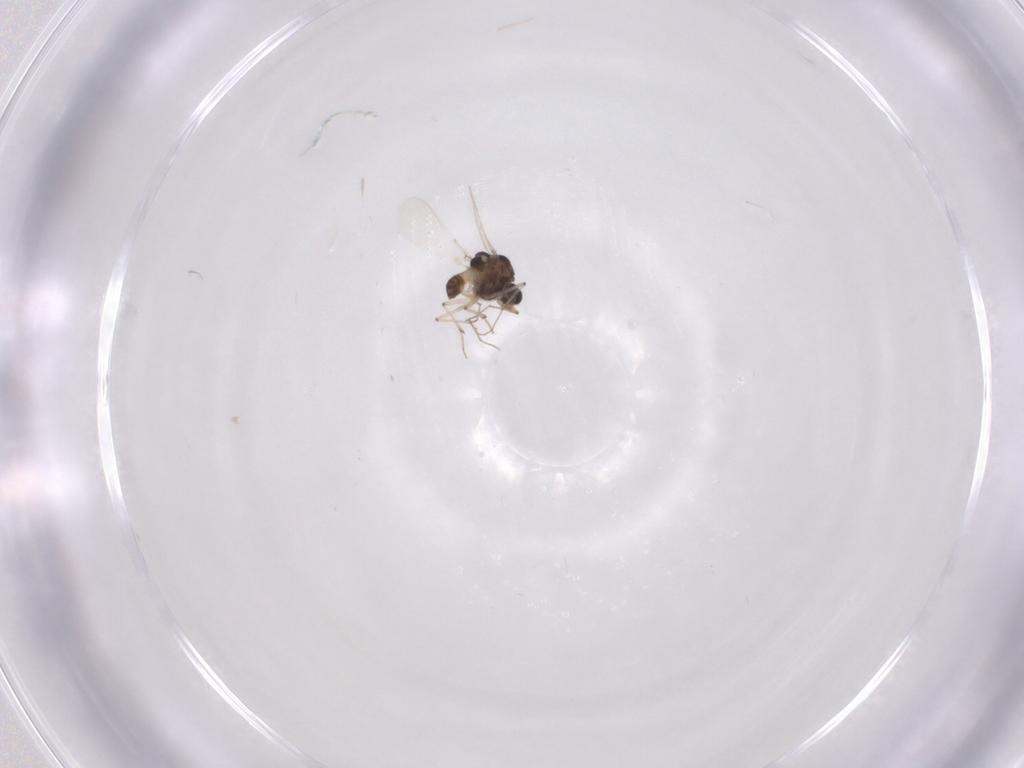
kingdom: Animalia
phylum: Arthropoda
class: Insecta
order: Diptera
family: Chironomidae
